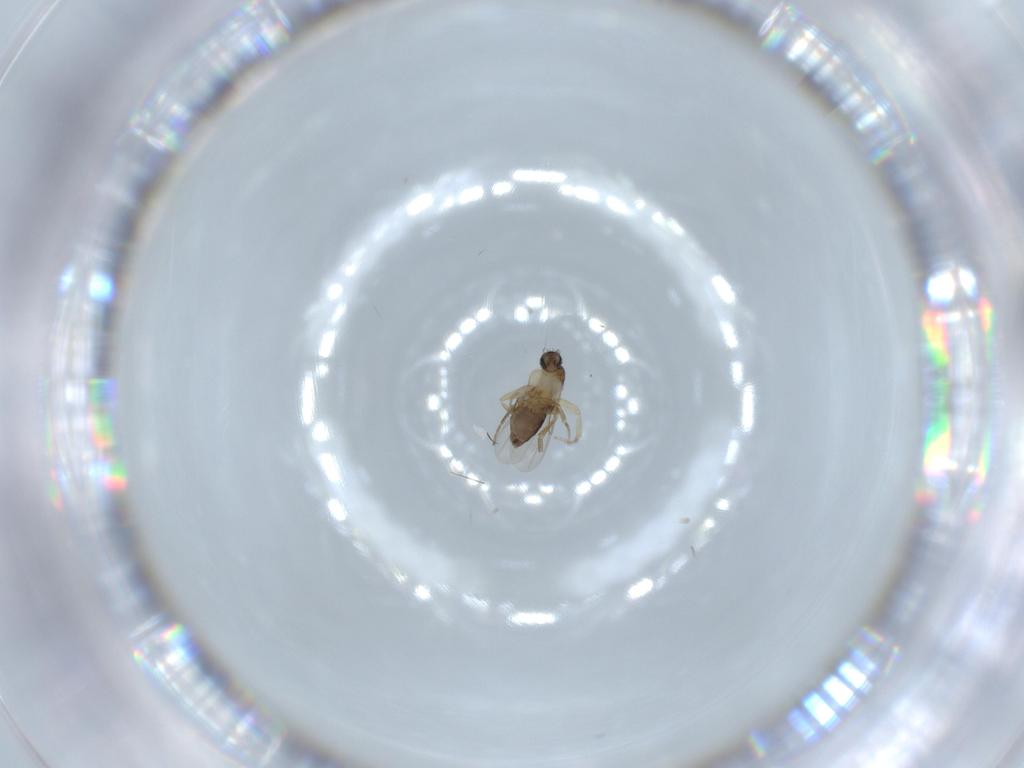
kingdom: Animalia
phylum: Arthropoda
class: Insecta
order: Diptera
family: Phoridae
